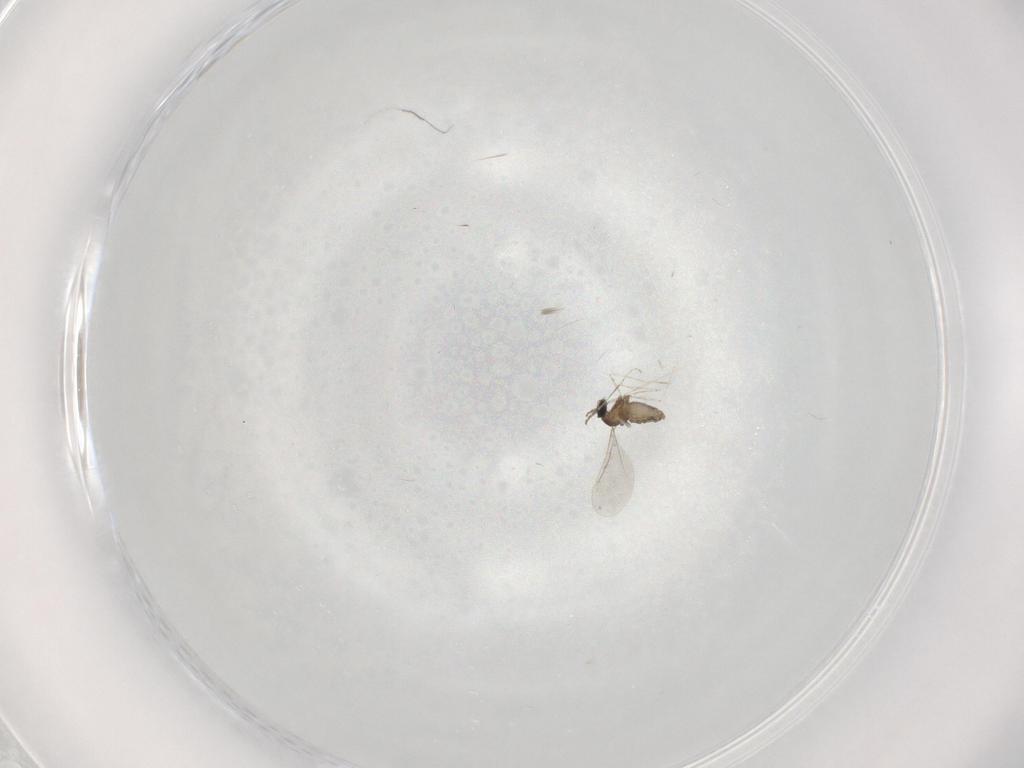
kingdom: Animalia
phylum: Arthropoda
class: Insecta
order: Diptera
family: Cecidomyiidae
